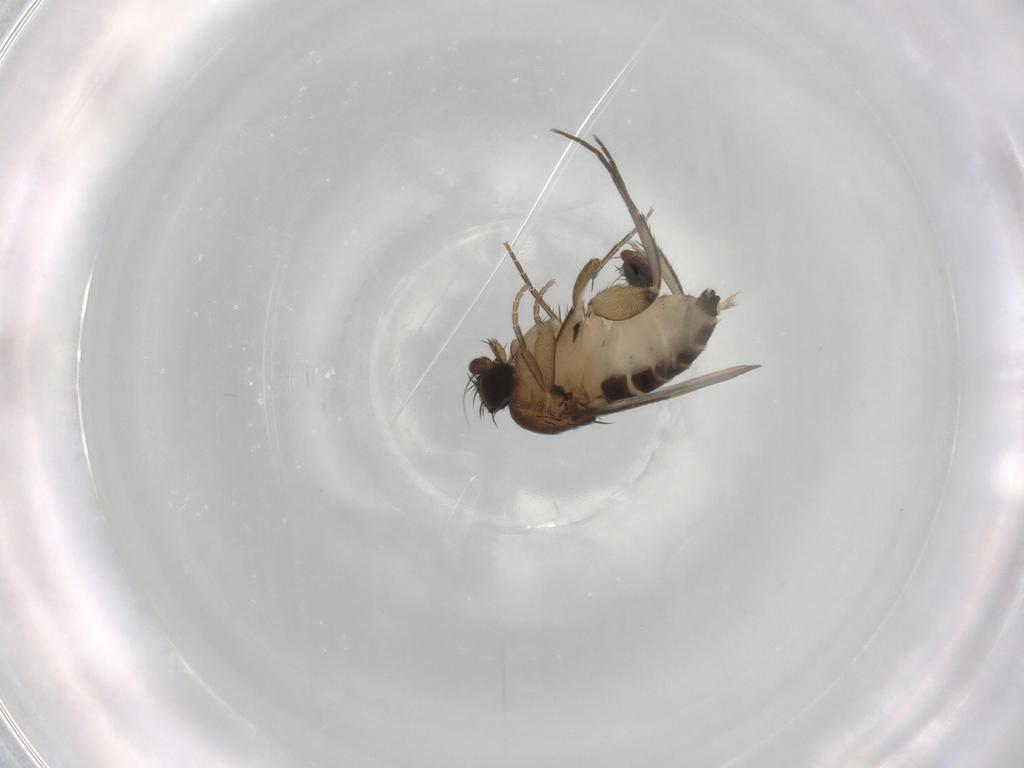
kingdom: Animalia
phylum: Arthropoda
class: Insecta
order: Diptera
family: Phoridae
